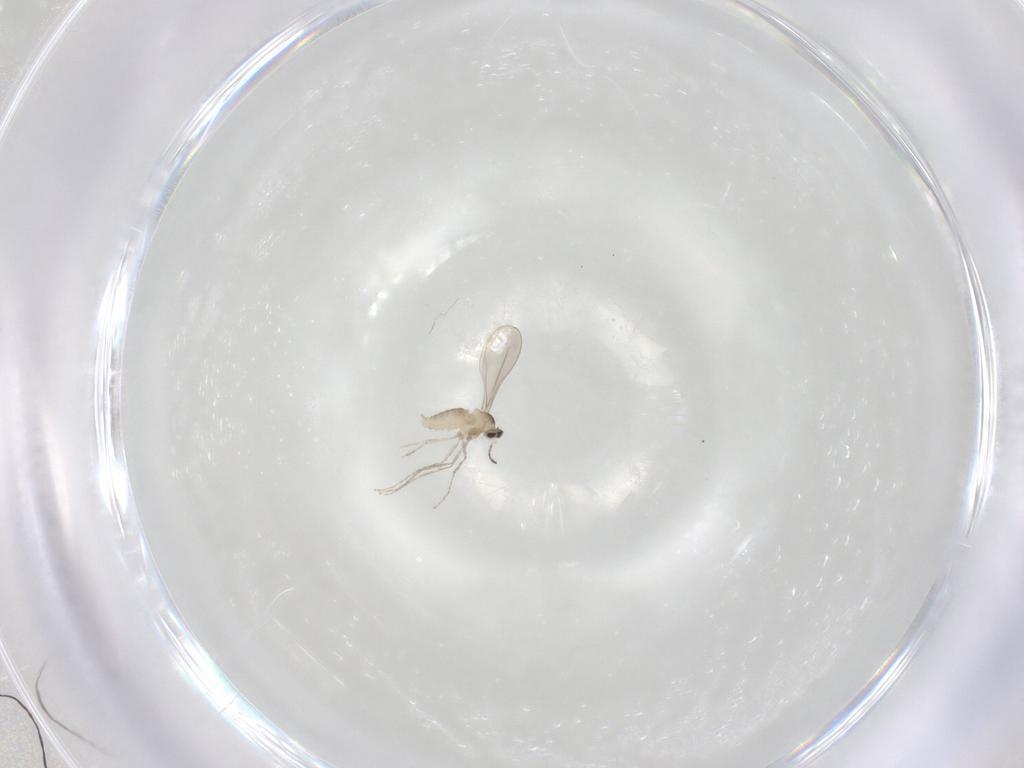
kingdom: Animalia
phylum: Arthropoda
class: Insecta
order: Diptera
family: Cecidomyiidae
